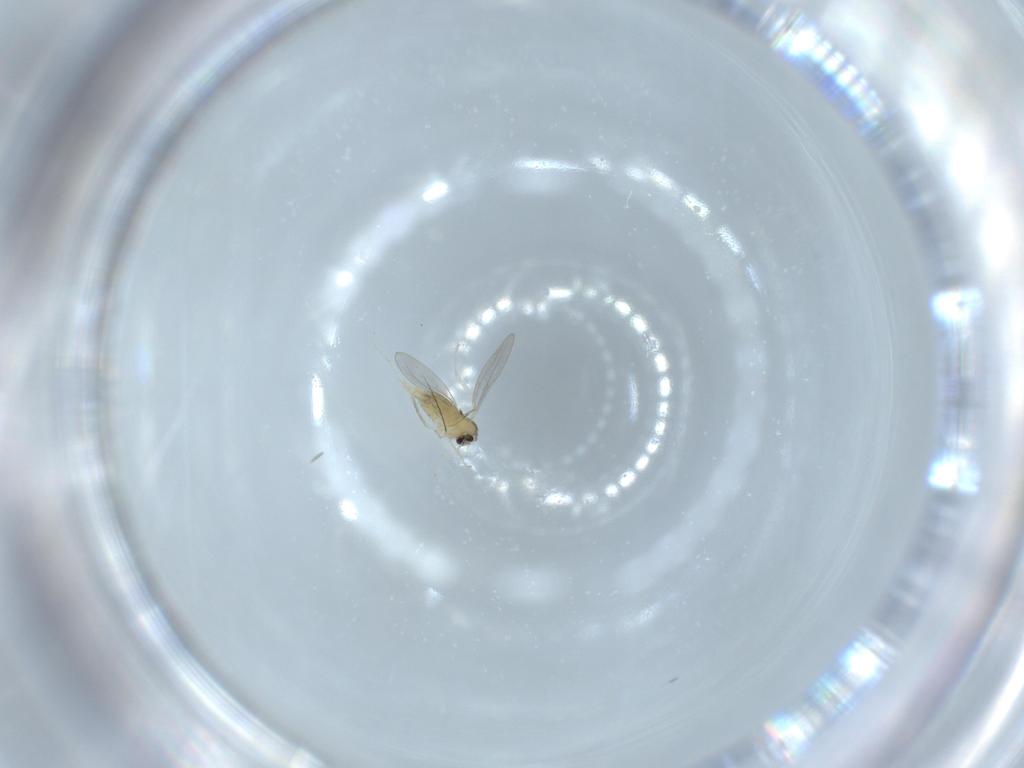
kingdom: Animalia
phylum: Arthropoda
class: Insecta
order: Diptera
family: Cecidomyiidae
